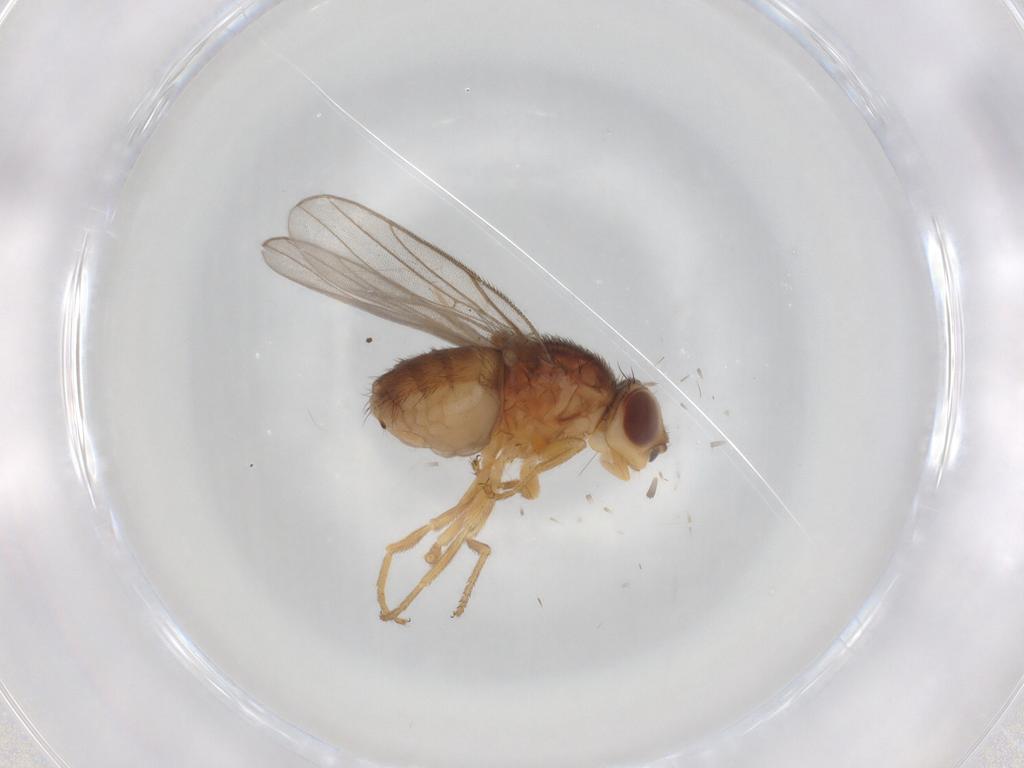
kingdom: Animalia
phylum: Arthropoda
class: Insecta
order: Diptera
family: Chloropidae
